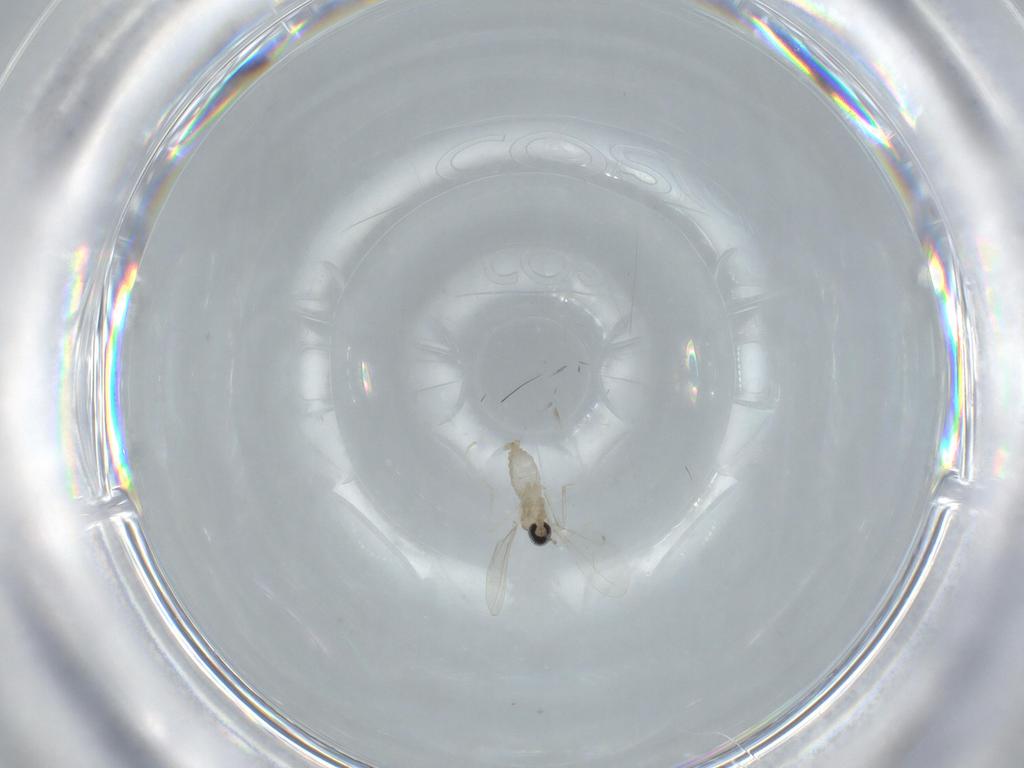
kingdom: Animalia
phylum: Arthropoda
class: Insecta
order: Diptera
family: Cecidomyiidae
